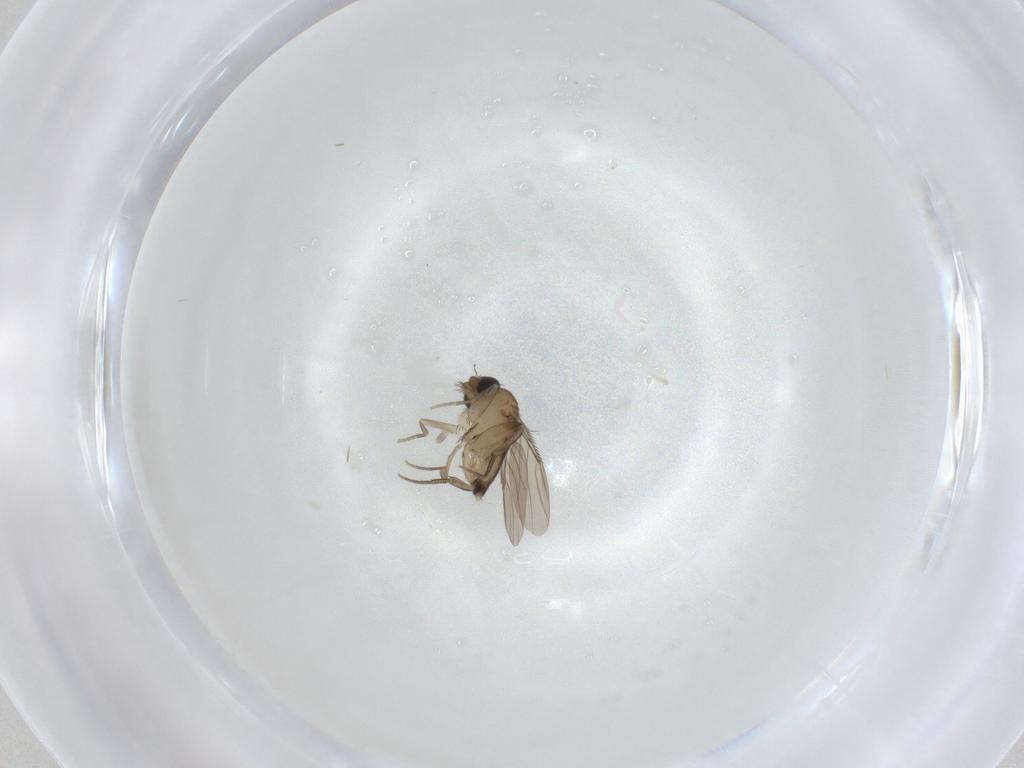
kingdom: Animalia
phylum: Arthropoda
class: Insecta
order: Diptera
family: Phoridae
